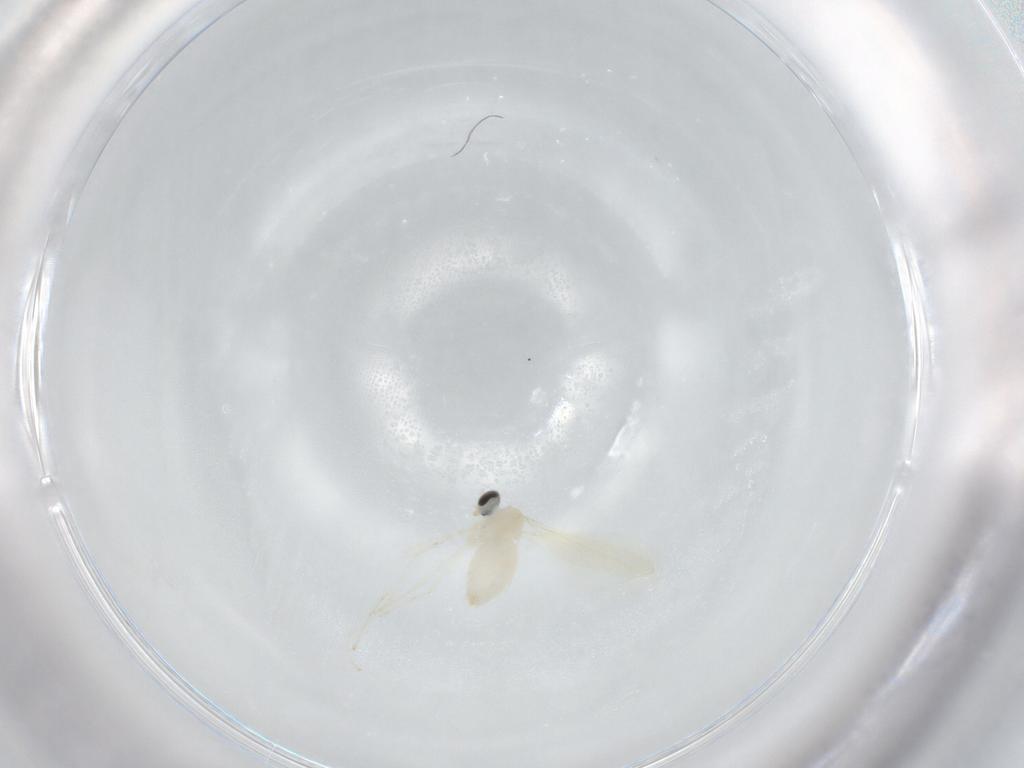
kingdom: Animalia
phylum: Arthropoda
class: Insecta
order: Diptera
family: Cecidomyiidae
